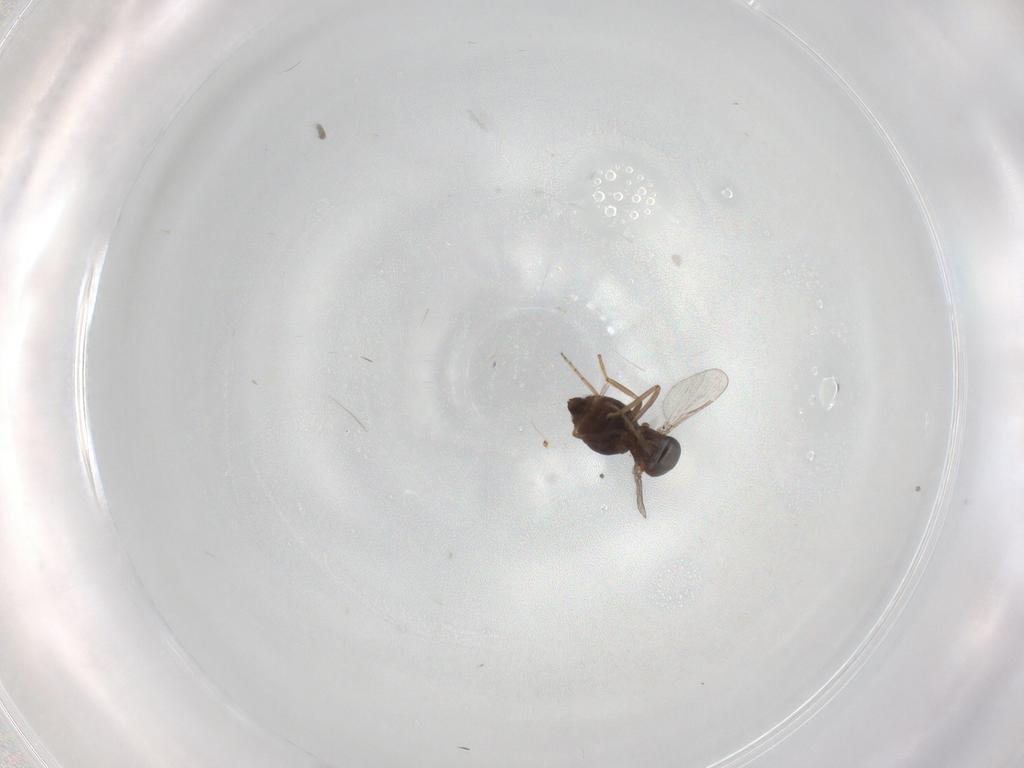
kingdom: Animalia
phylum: Arthropoda
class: Insecta
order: Diptera
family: Ceratopogonidae
